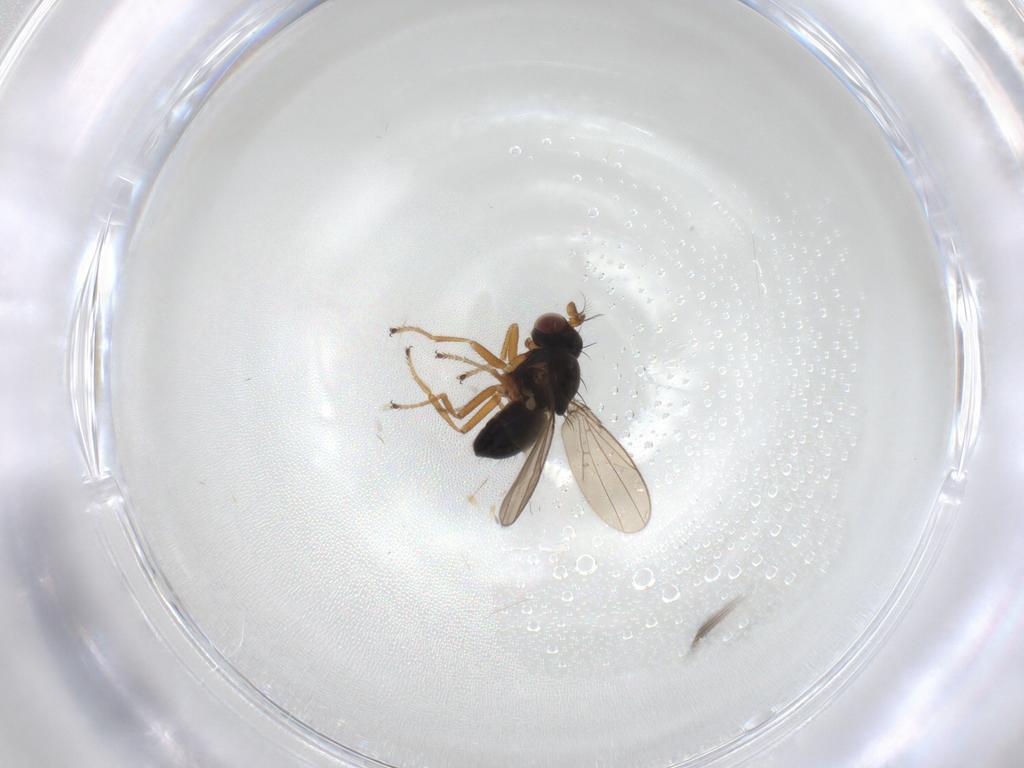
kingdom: Animalia
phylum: Arthropoda
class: Insecta
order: Diptera
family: Ephydridae
